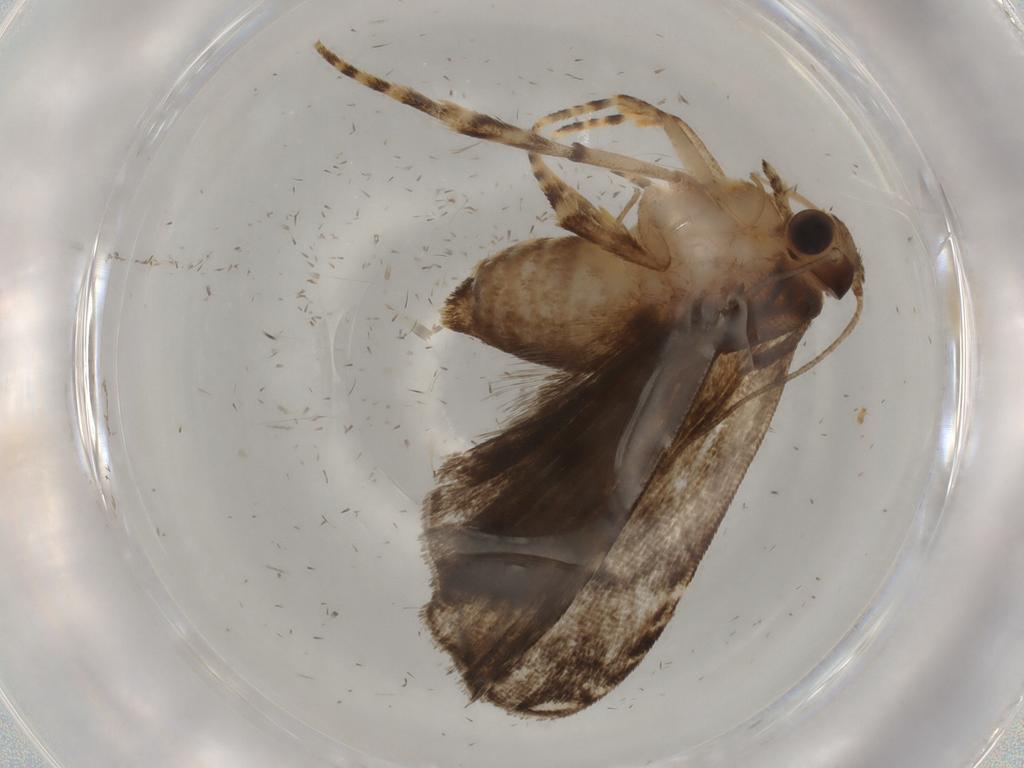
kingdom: Animalia
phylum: Arthropoda
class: Insecta
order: Lepidoptera
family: Immidae
